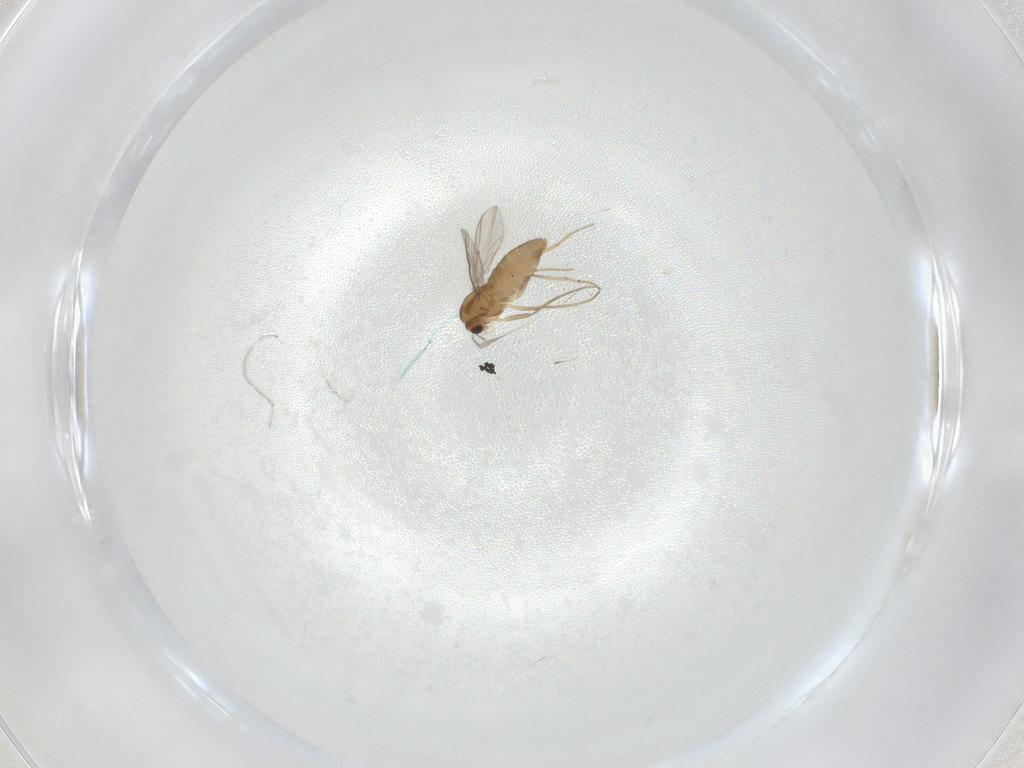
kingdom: Animalia
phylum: Arthropoda
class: Insecta
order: Diptera
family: Chironomidae
